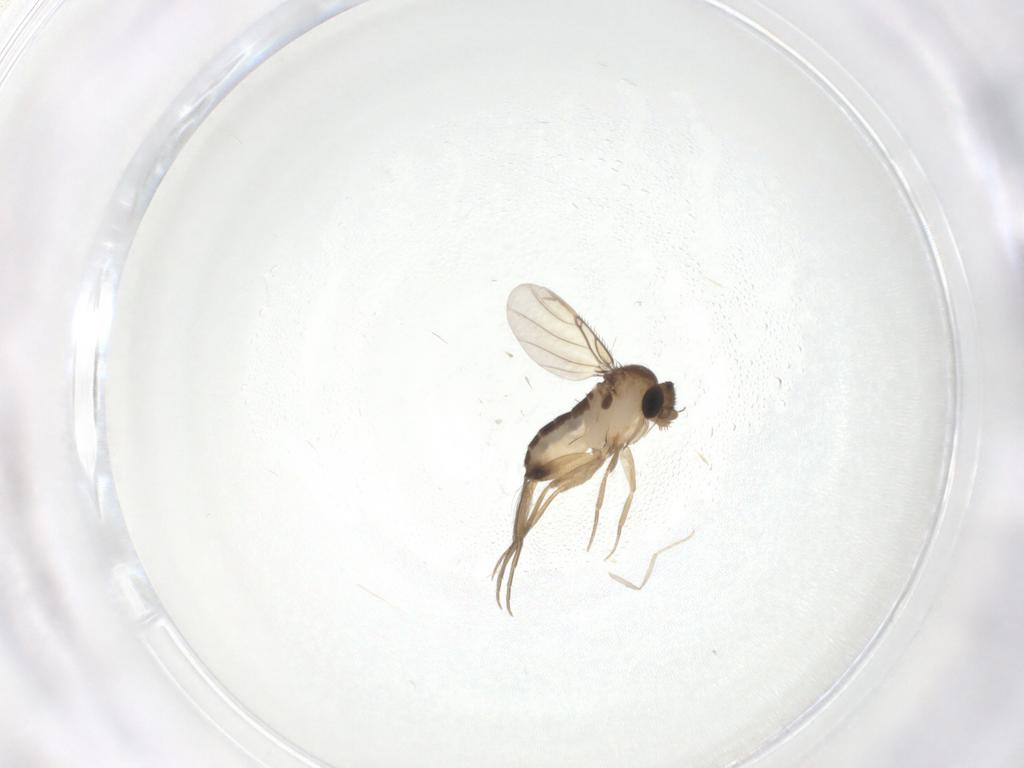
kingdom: Animalia
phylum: Arthropoda
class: Insecta
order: Diptera
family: Phoridae
